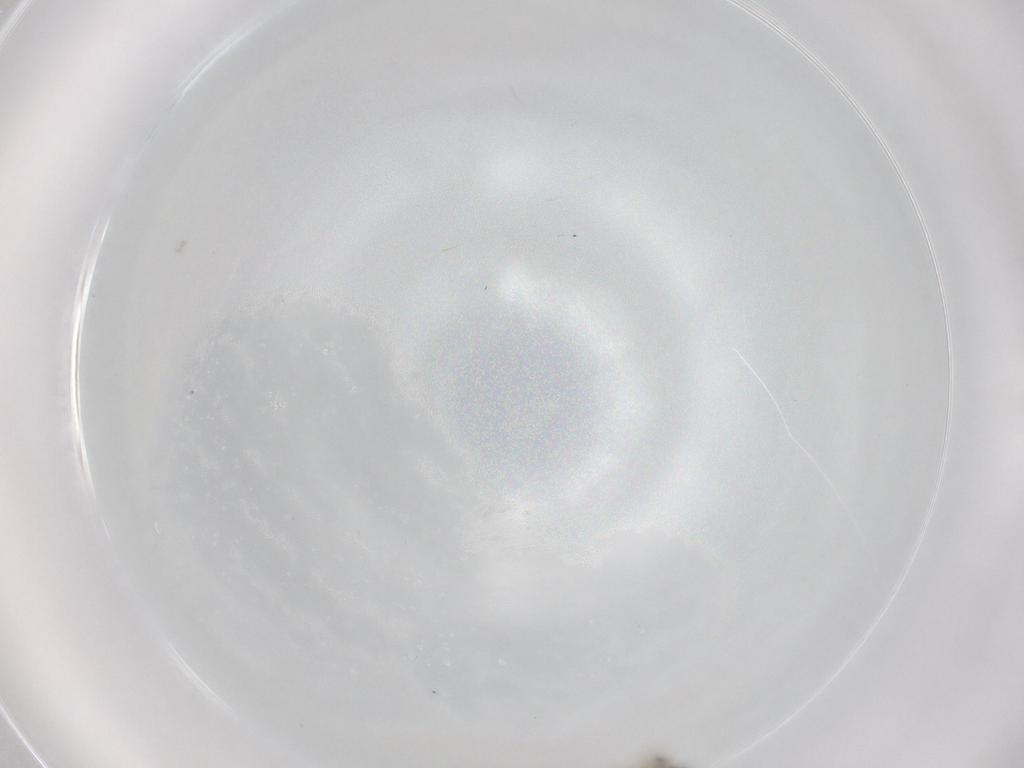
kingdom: Animalia
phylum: Arthropoda
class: Insecta
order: Diptera
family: Cecidomyiidae
